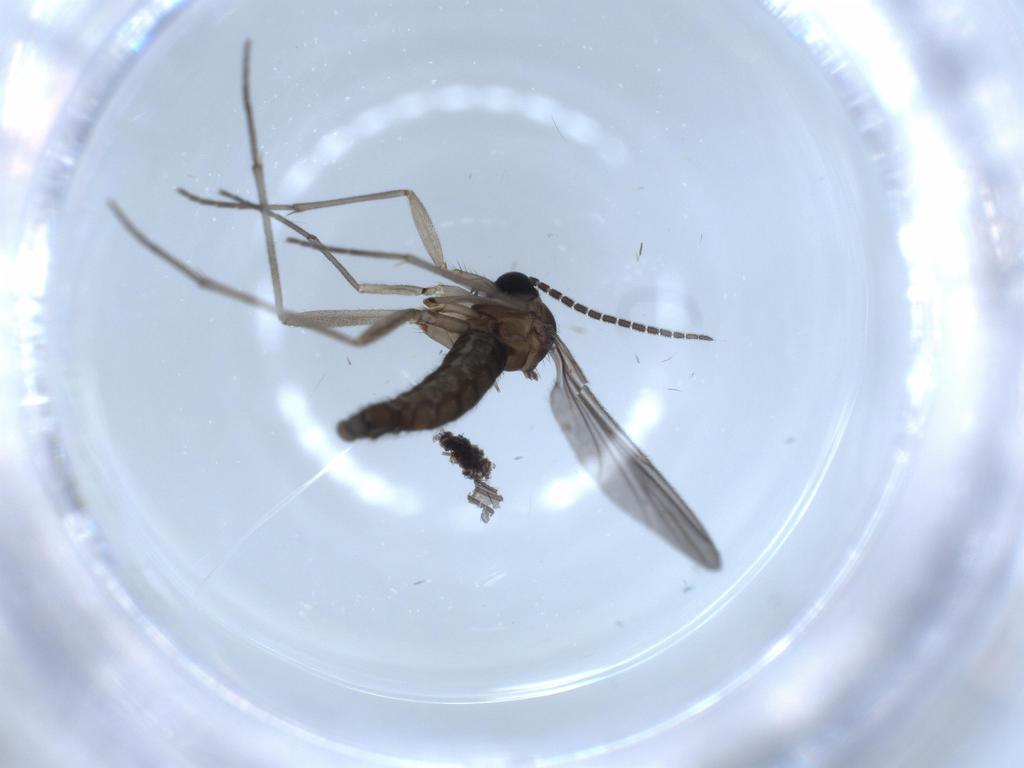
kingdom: Animalia
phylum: Arthropoda
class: Insecta
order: Diptera
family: Sciaridae
